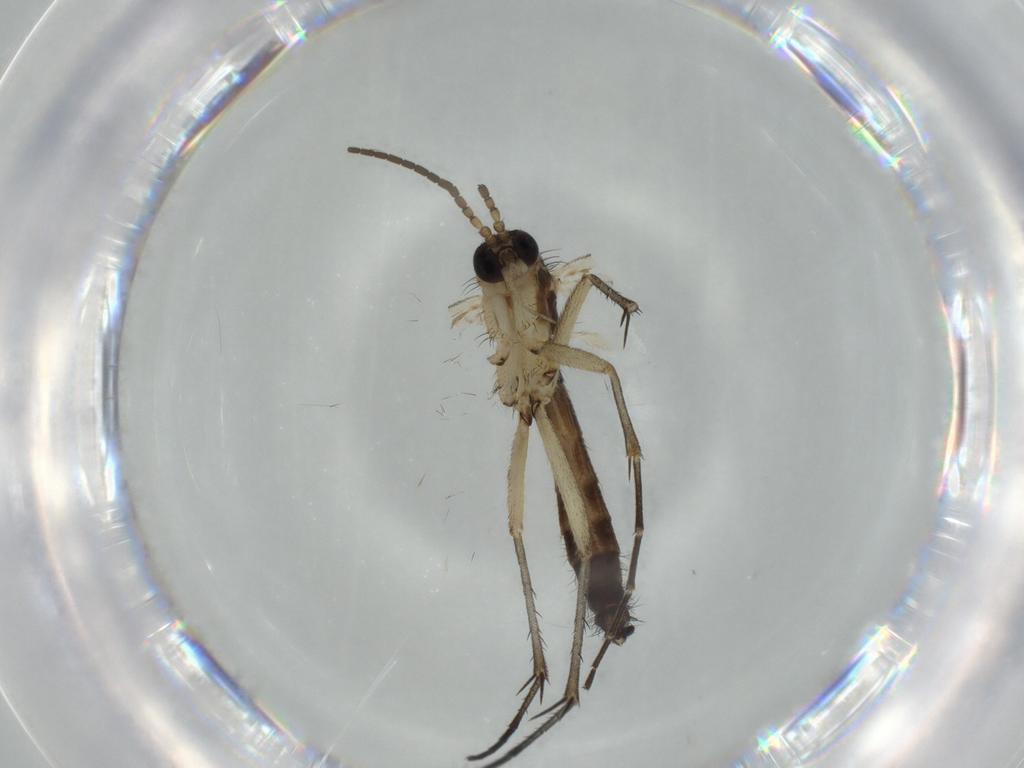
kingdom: Animalia
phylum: Arthropoda
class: Insecta
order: Diptera
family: Mycetophilidae
